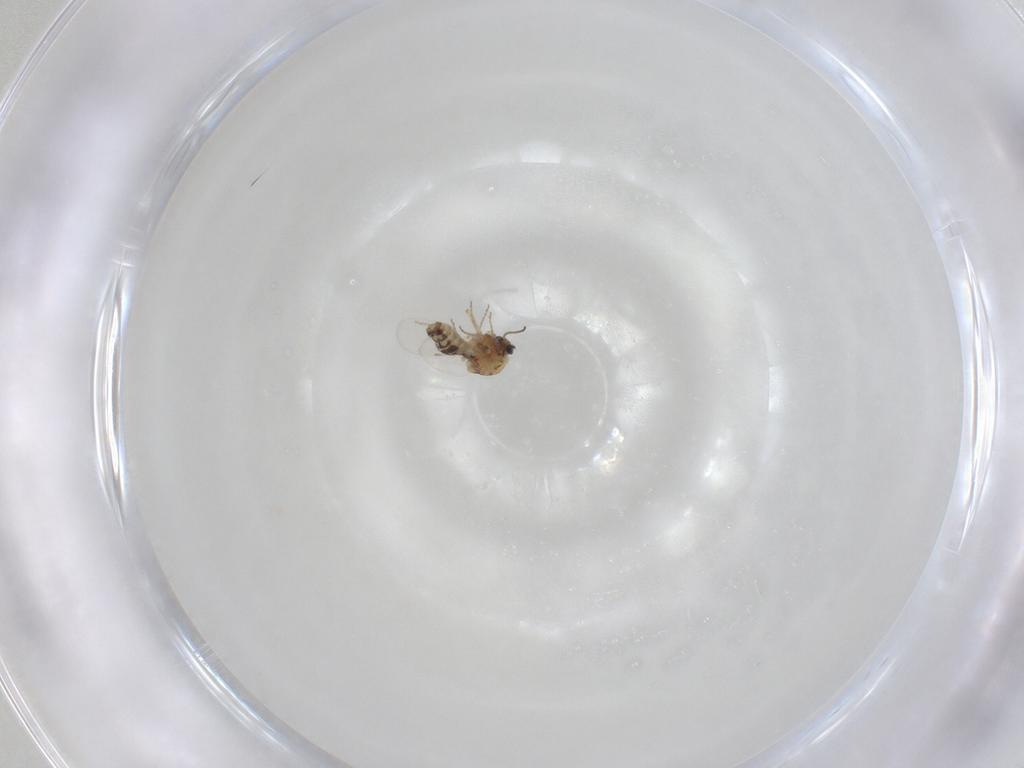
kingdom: Animalia
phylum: Arthropoda
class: Insecta
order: Diptera
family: Ceratopogonidae
